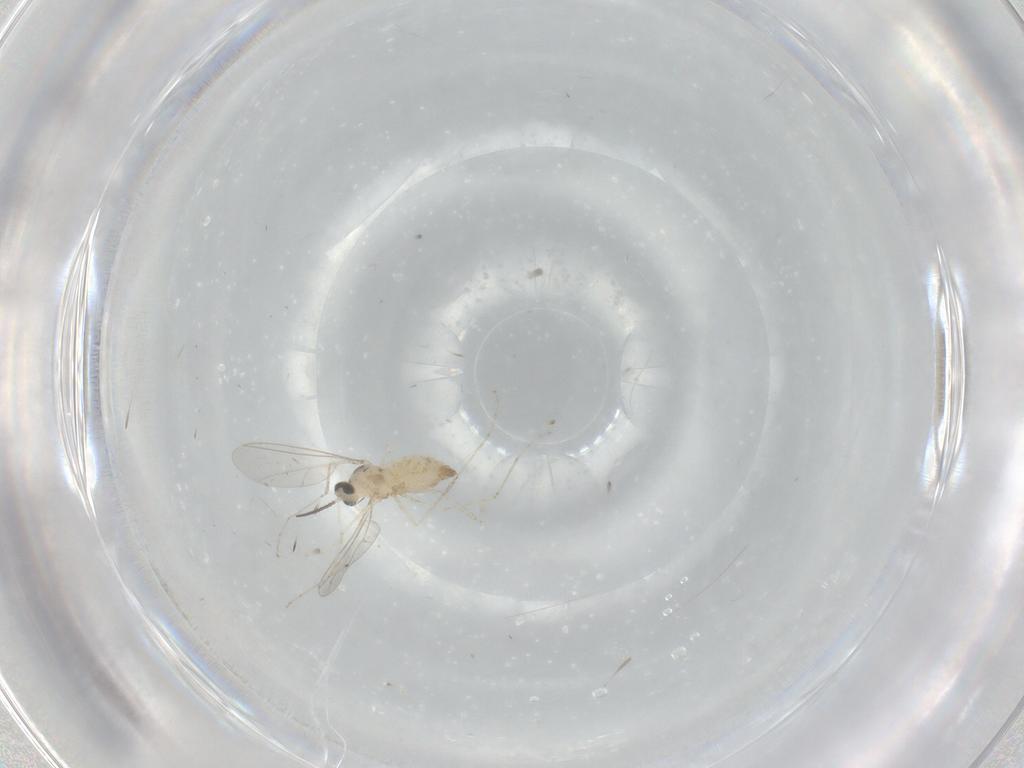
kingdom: Animalia
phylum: Arthropoda
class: Insecta
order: Diptera
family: Cecidomyiidae
